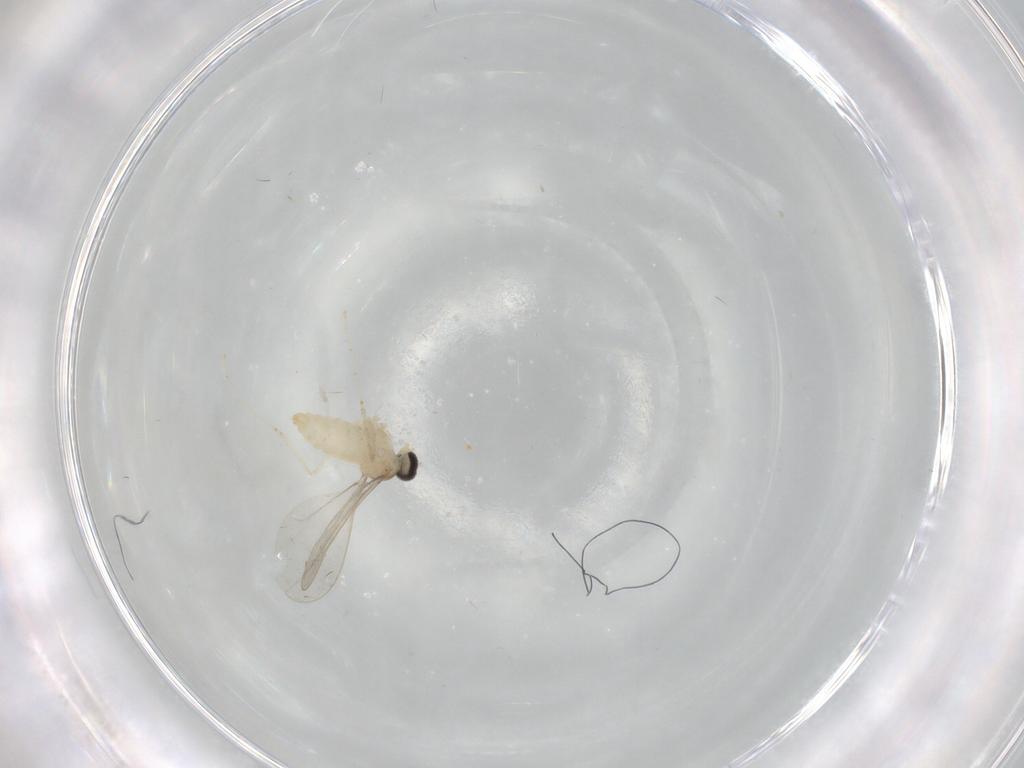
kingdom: Animalia
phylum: Arthropoda
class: Insecta
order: Diptera
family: Cecidomyiidae
